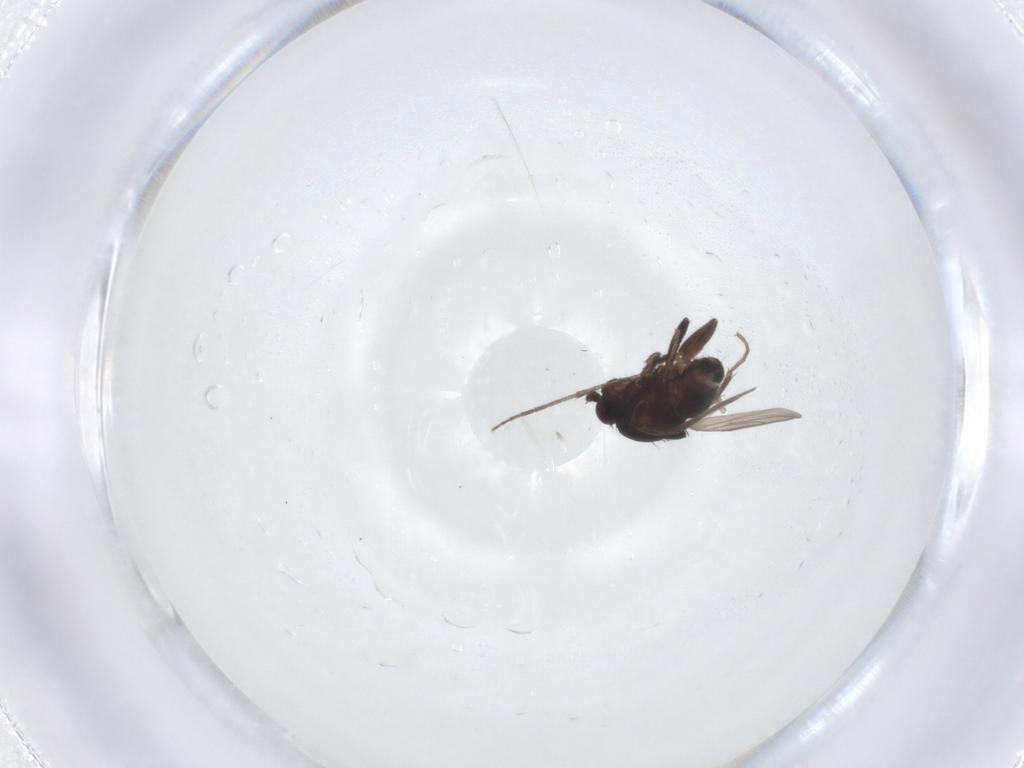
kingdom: Animalia
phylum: Arthropoda
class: Insecta
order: Diptera
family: Sphaeroceridae
